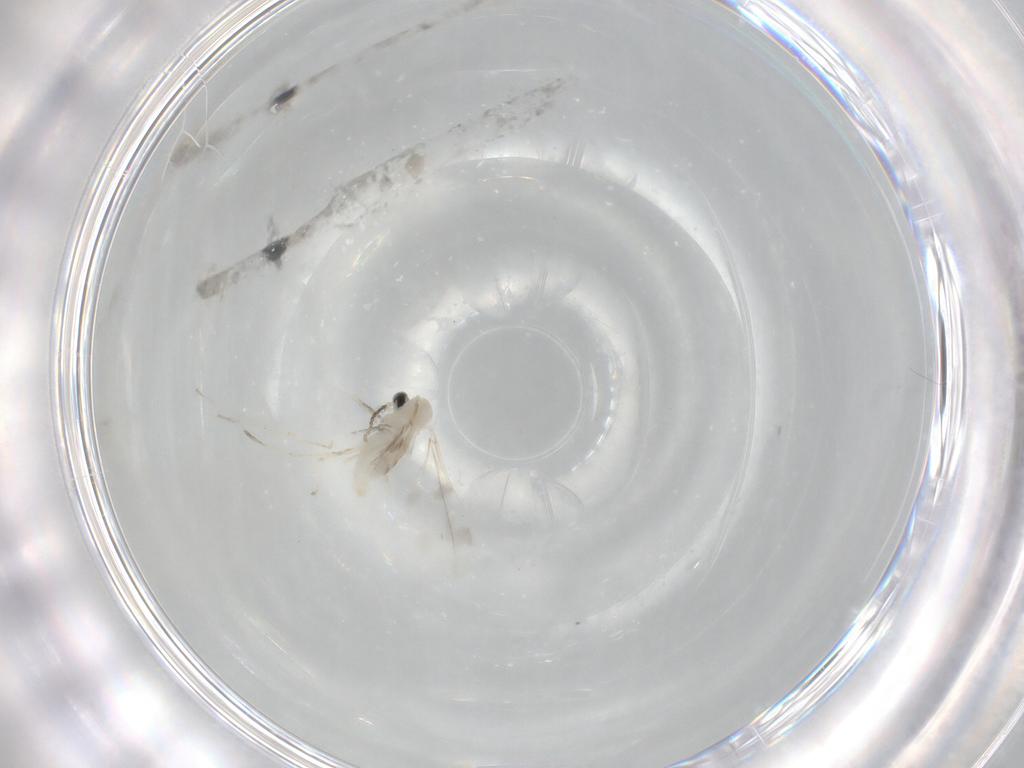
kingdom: Animalia
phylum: Arthropoda
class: Insecta
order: Diptera
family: Cecidomyiidae
